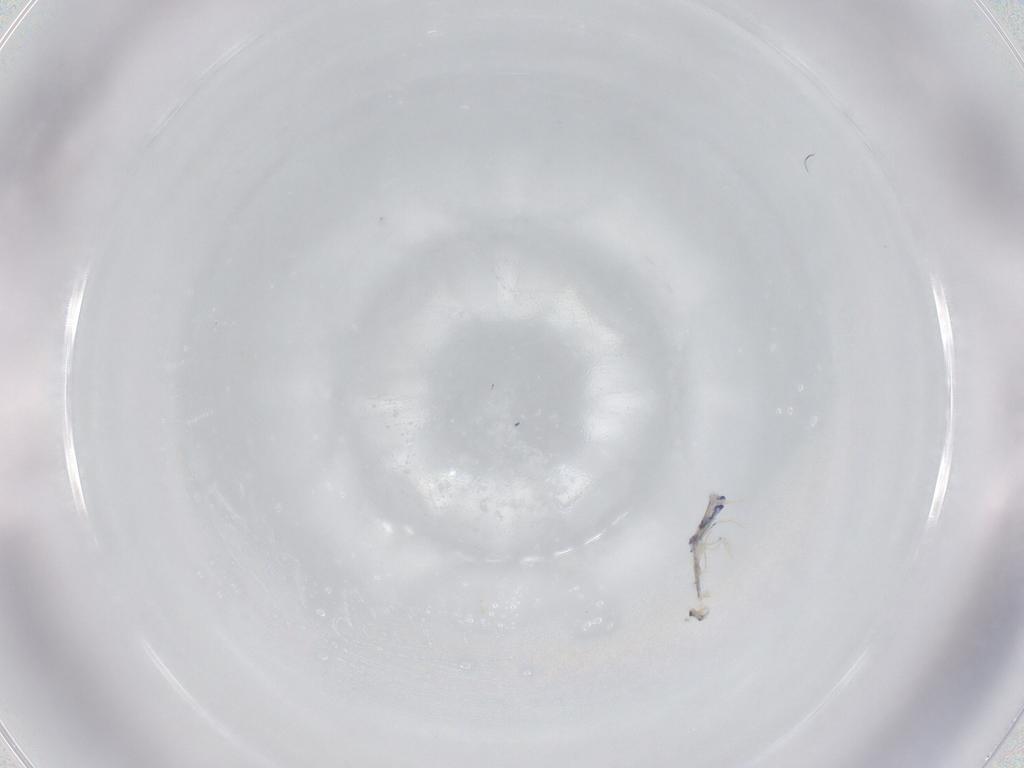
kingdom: Animalia
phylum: Arthropoda
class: Collembola
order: Entomobryomorpha
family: Entomobryidae
